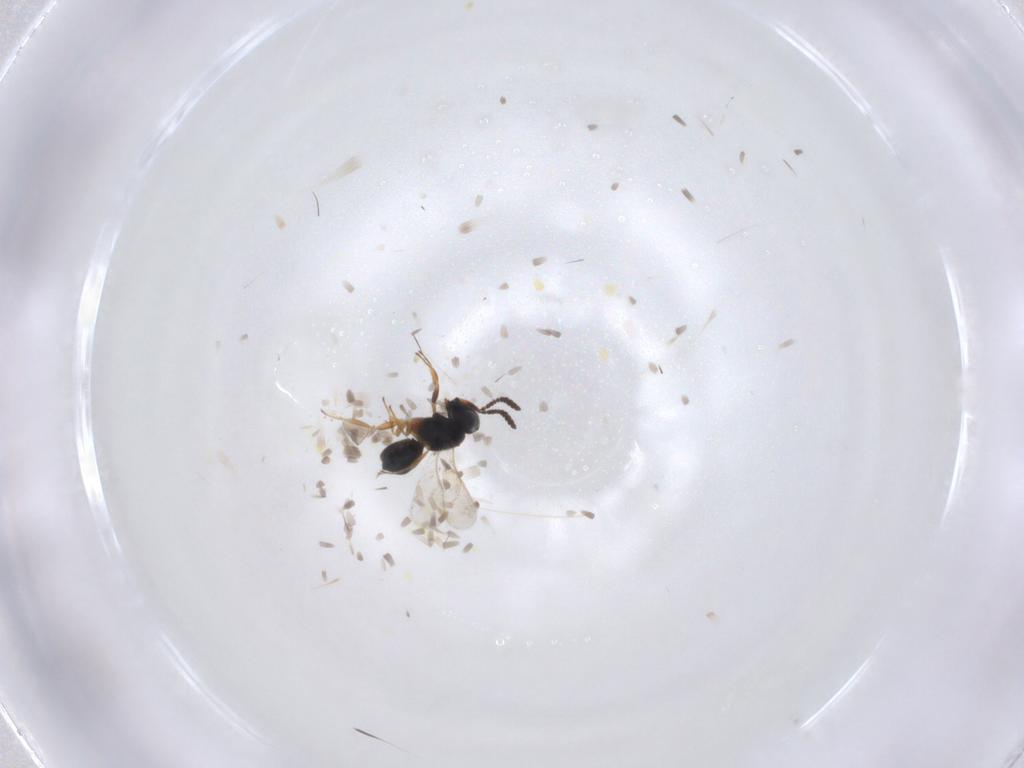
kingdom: Animalia
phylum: Arthropoda
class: Insecta
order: Hymenoptera
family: Scelionidae
